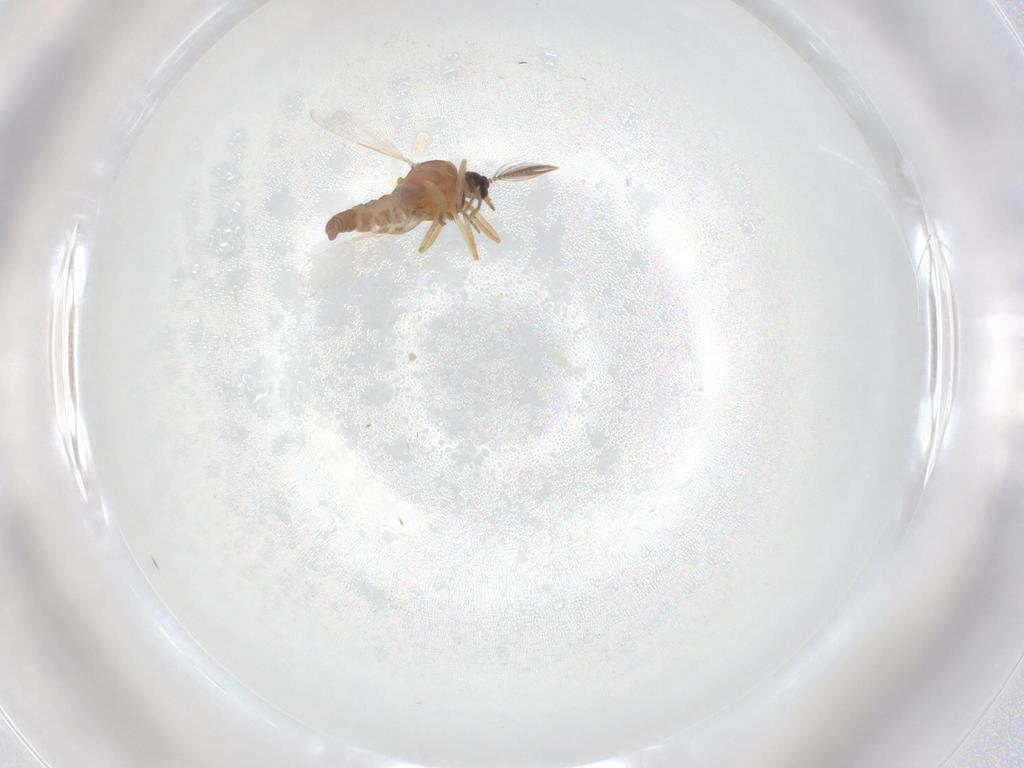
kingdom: Animalia
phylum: Arthropoda
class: Insecta
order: Diptera
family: Ceratopogonidae
